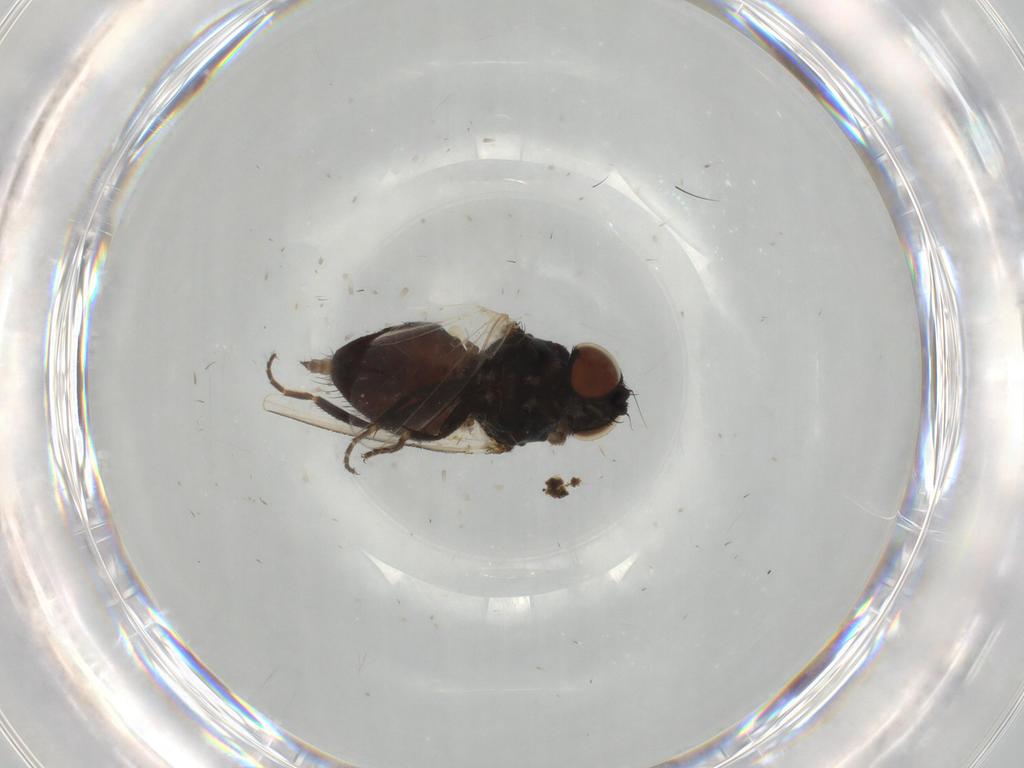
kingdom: Animalia
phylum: Arthropoda
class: Insecta
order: Diptera
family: Milichiidae
